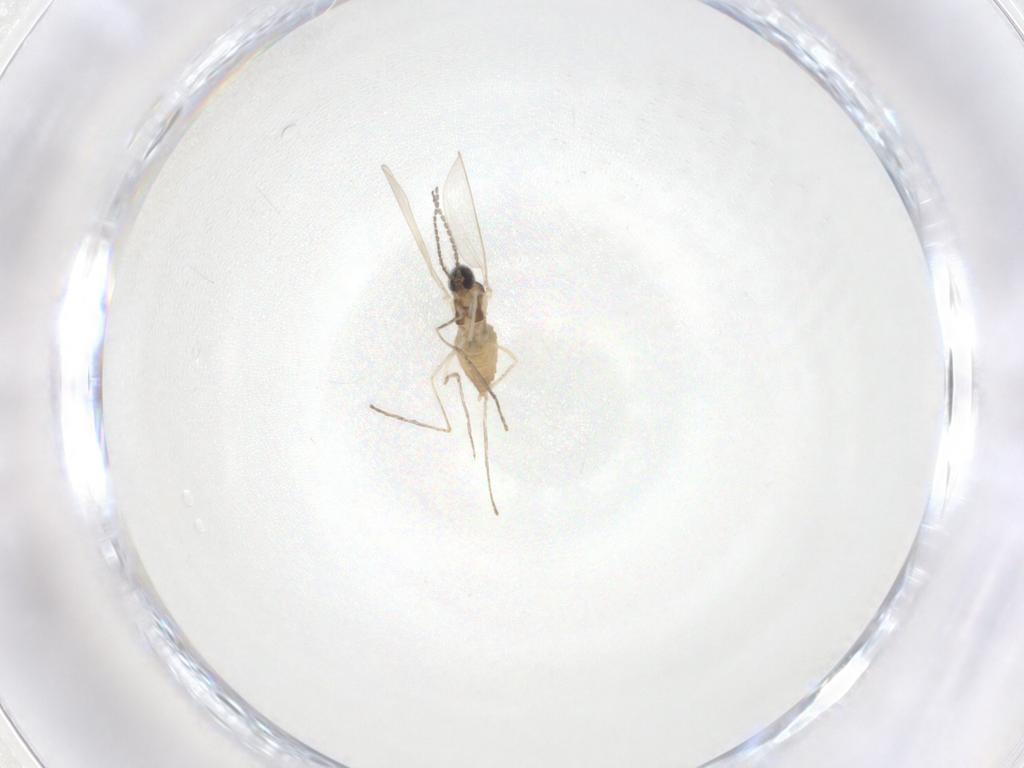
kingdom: Animalia
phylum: Arthropoda
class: Insecta
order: Diptera
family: Cecidomyiidae
